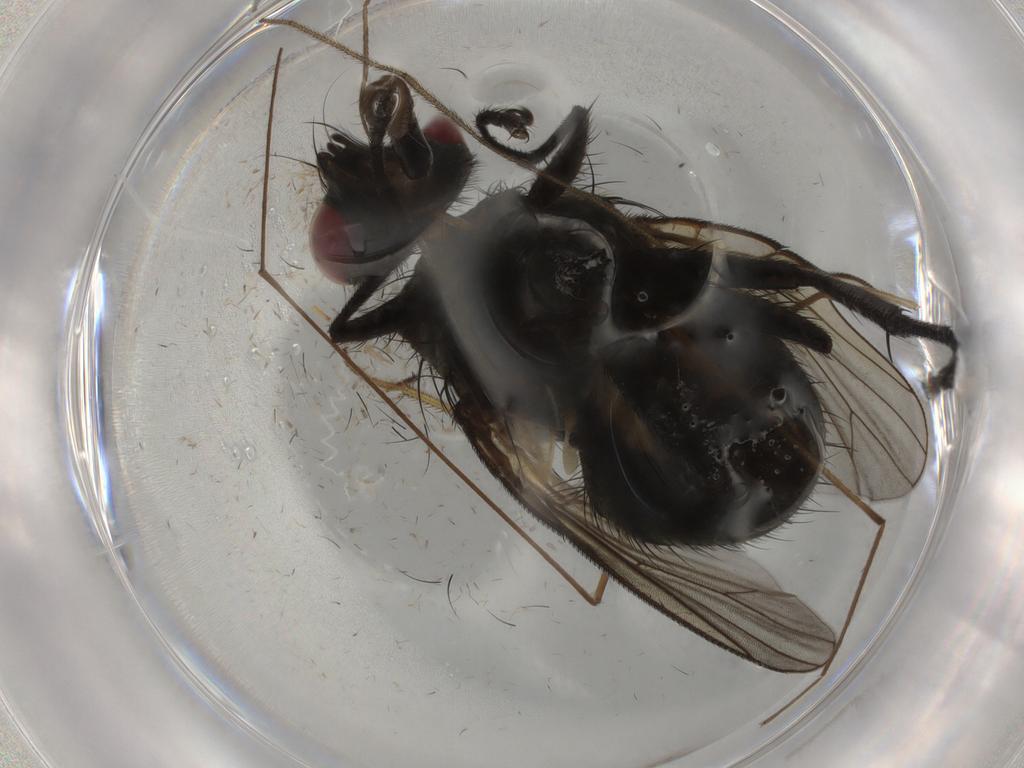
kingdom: Animalia
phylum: Arthropoda
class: Insecta
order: Diptera
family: Muscidae
